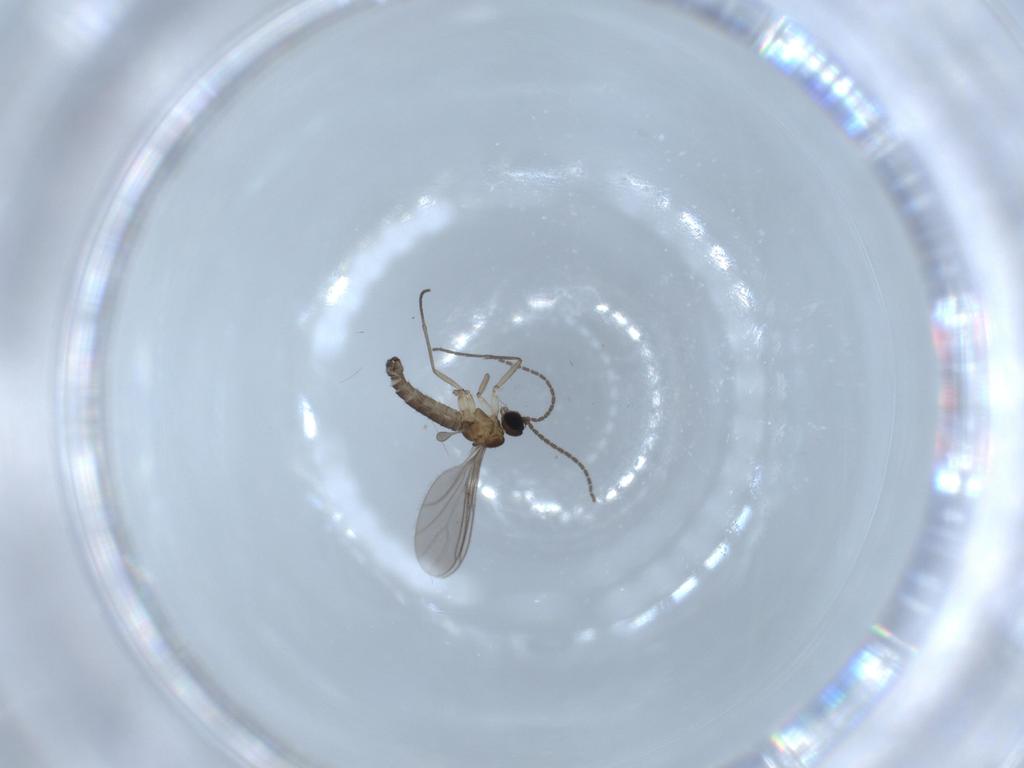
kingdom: Animalia
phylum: Arthropoda
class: Insecta
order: Diptera
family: Sciaridae
